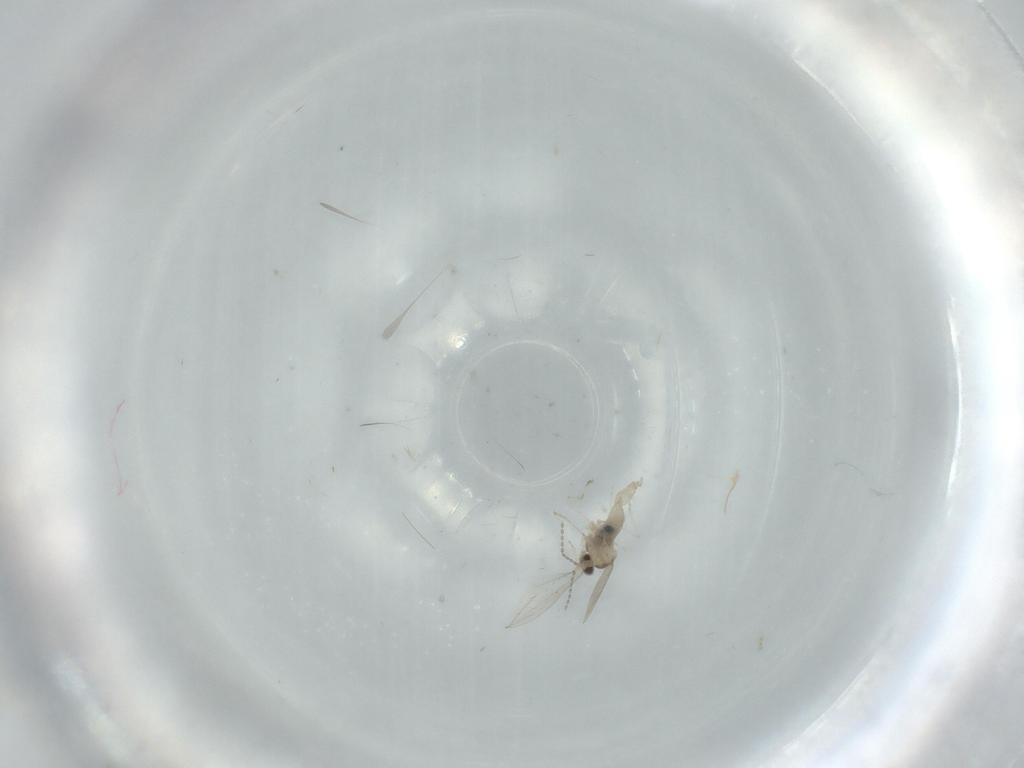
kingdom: Animalia
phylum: Arthropoda
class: Insecta
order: Diptera
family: Cecidomyiidae
